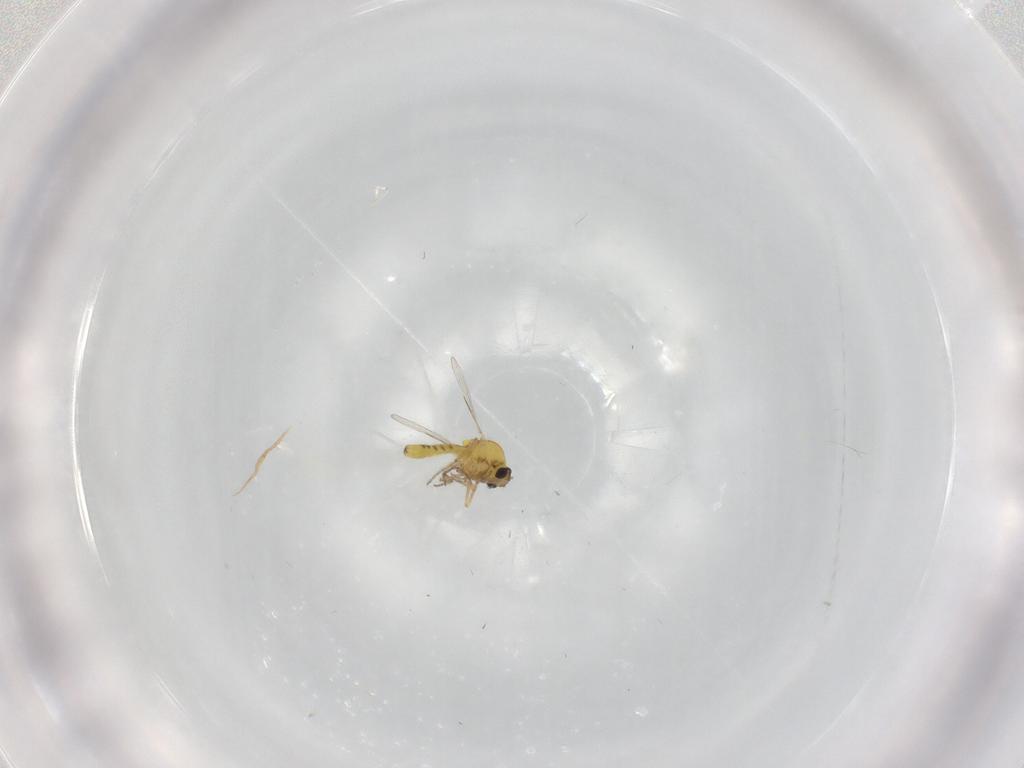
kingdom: Animalia
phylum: Arthropoda
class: Insecta
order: Diptera
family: Ceratopogonidae
